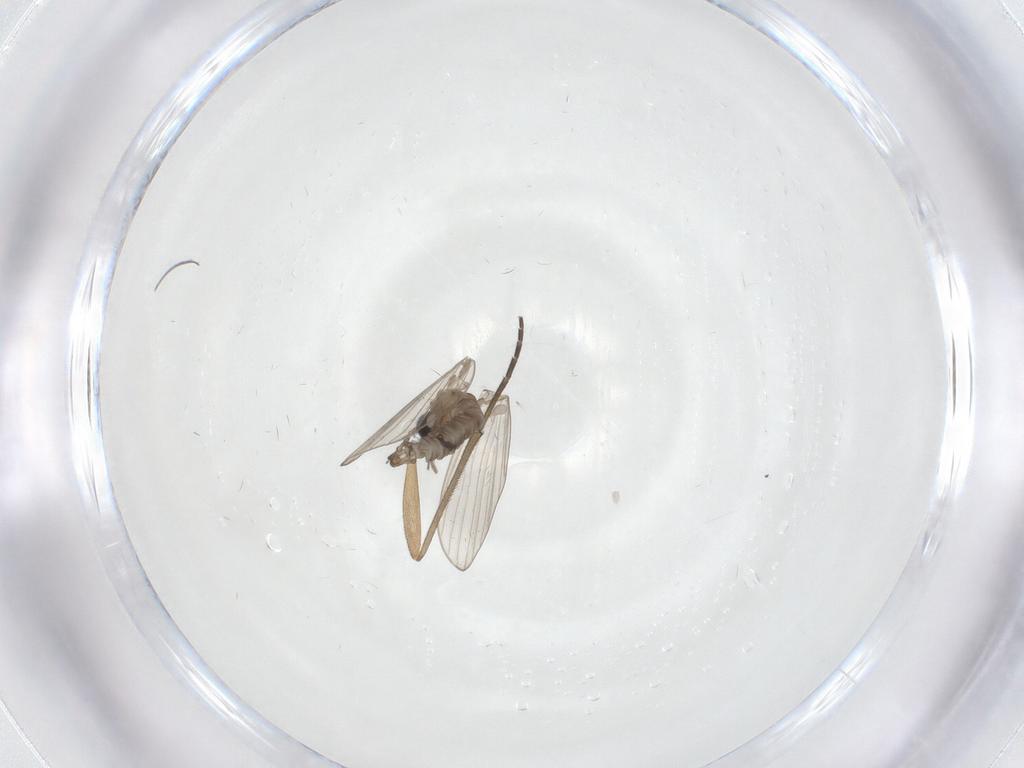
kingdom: Animalia
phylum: Arthropoda
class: Insecta
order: Diptera
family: Psychodidae
